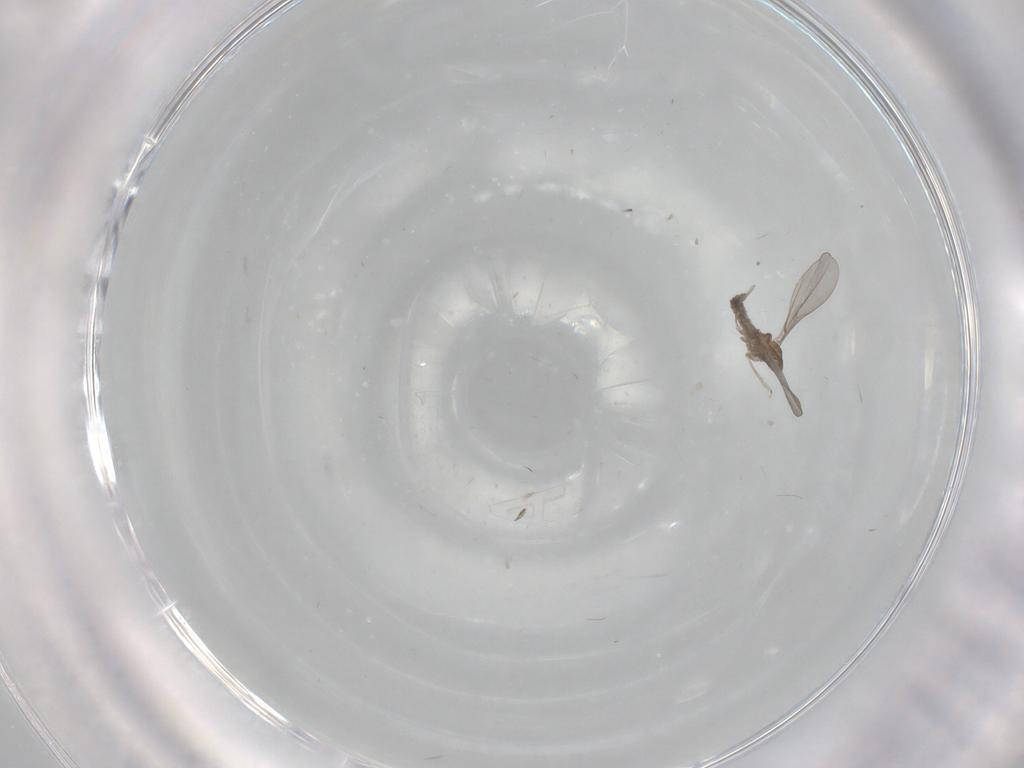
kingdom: Animalia
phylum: Arthropoda
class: Insecta
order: Diptera
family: Cecidomyiidae
